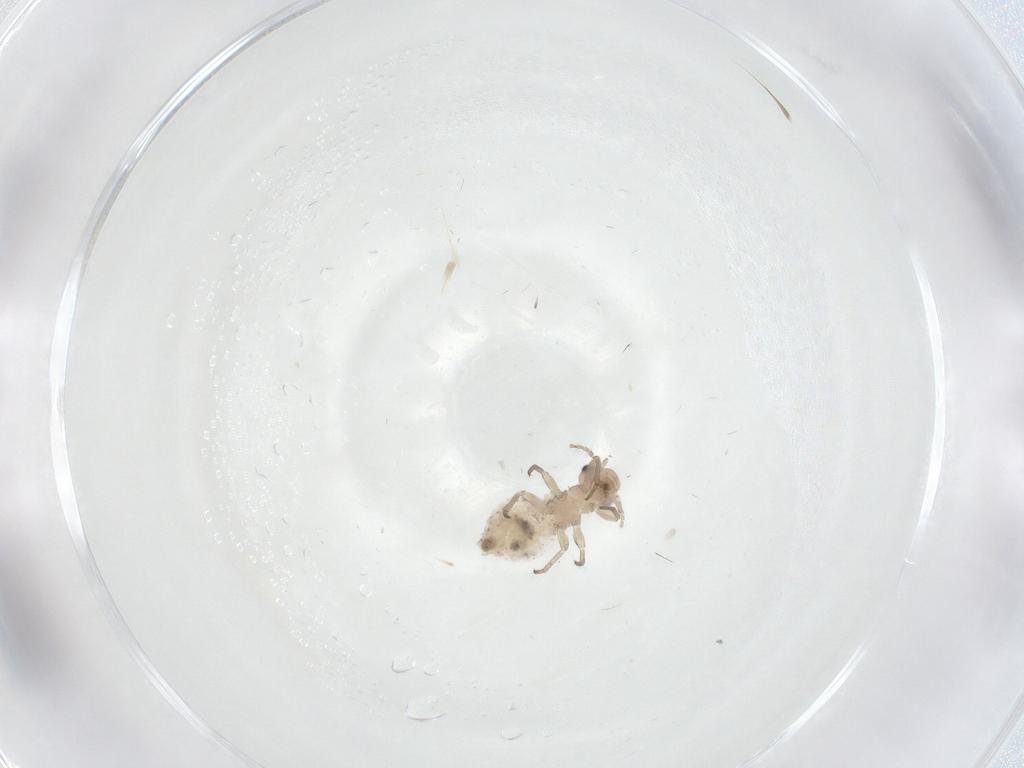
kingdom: Animalia
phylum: Arthropoda
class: Insecta
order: Psocodea
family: Myopsocidae
